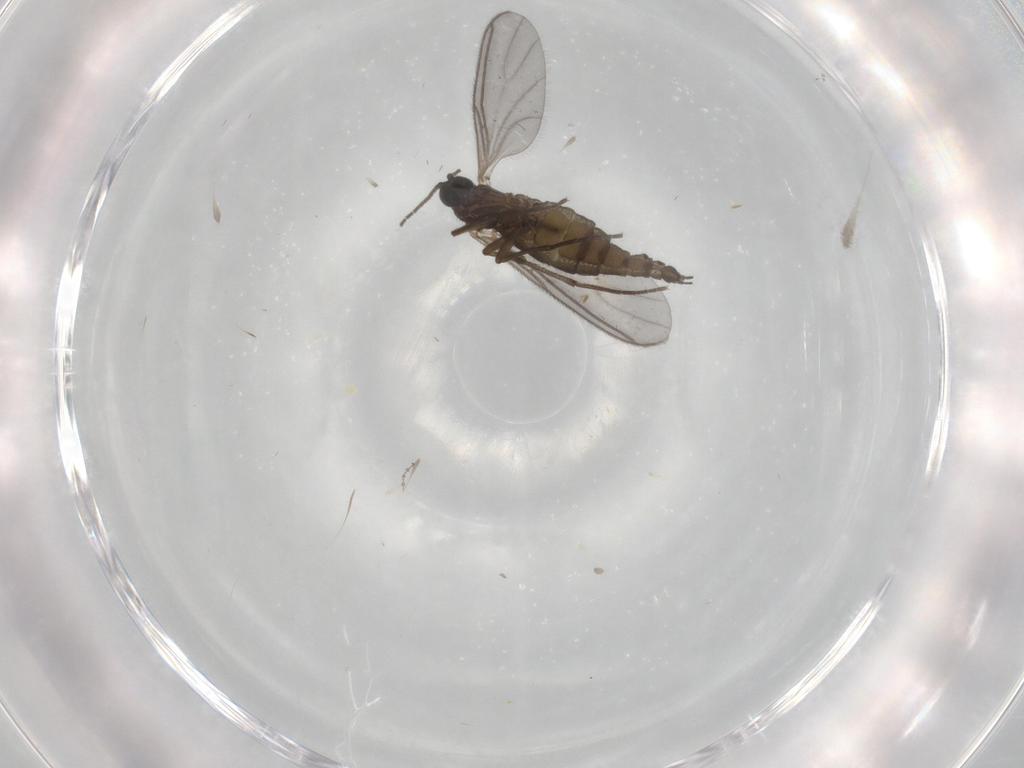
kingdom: Animalia
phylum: Arthropoda
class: Insecta
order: Diptera
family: Sciaridae
